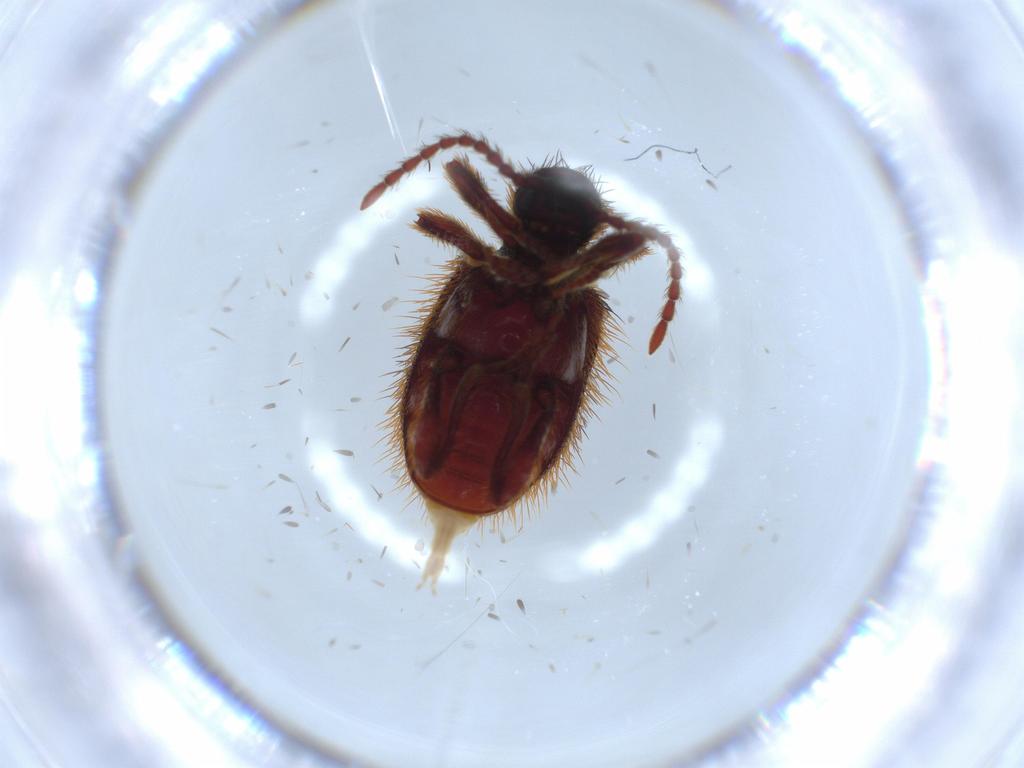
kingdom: Animalia
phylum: Arthropoda
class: Insecta
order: Coleoptera
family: Ptinidae
